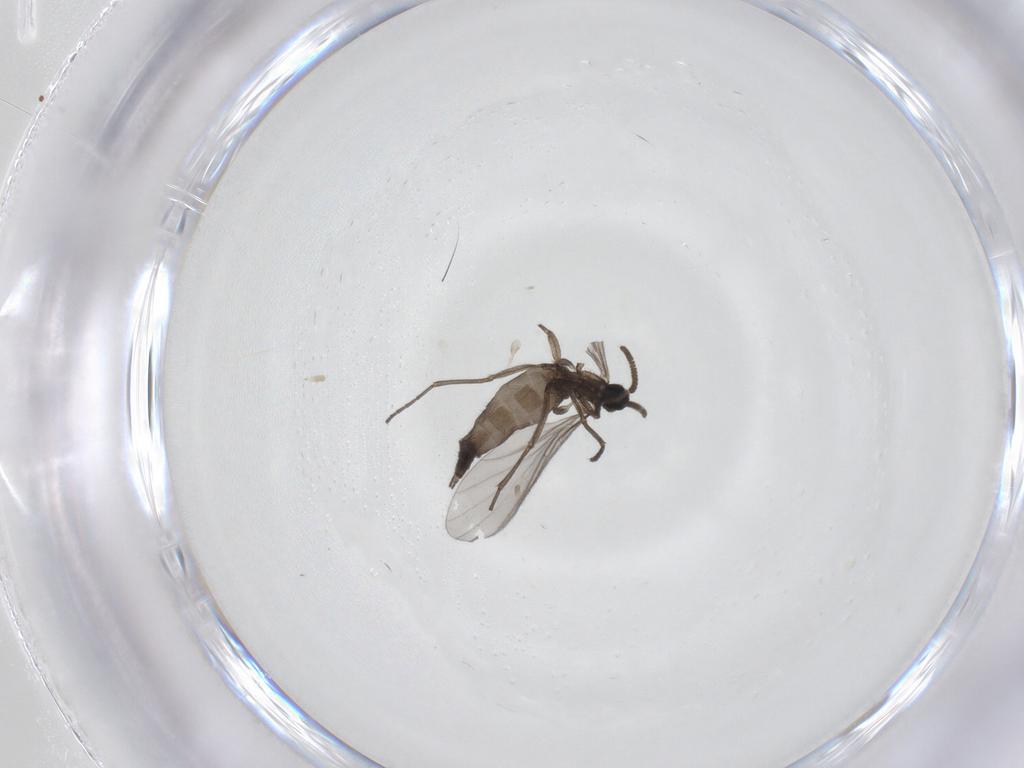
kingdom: Animalia
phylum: Arthropoda
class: Insecta
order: Diptera
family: Sciaridae
